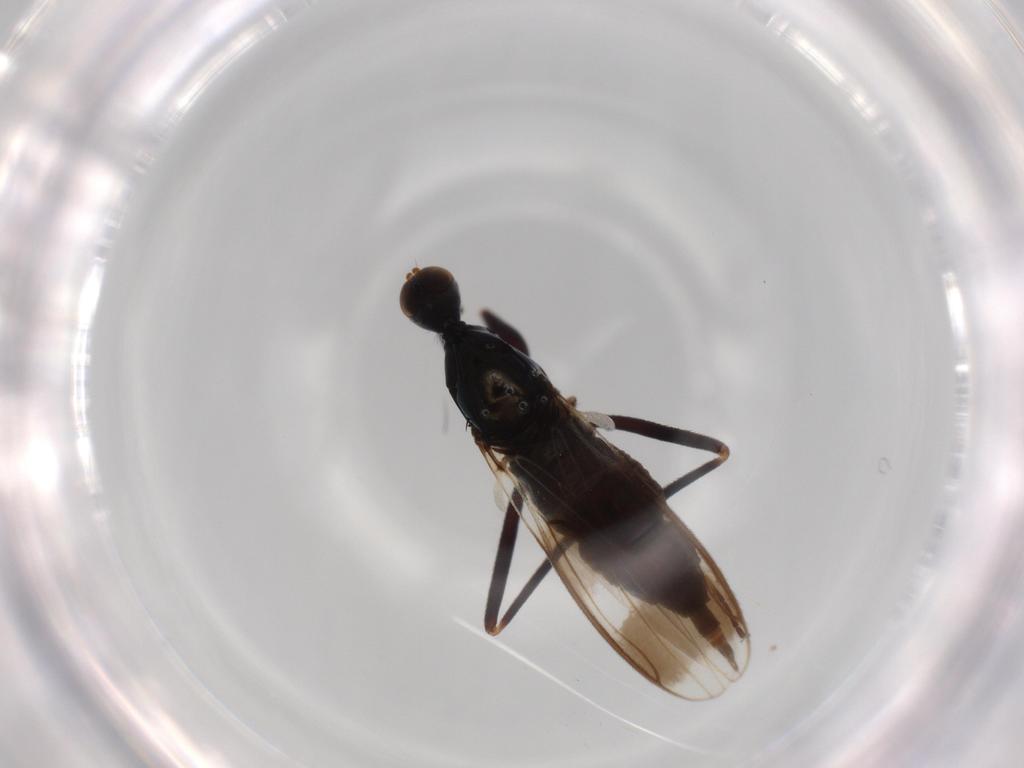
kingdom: Animalia
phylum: Arthropoda
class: Insecta
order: Diptera
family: Hybotidae
